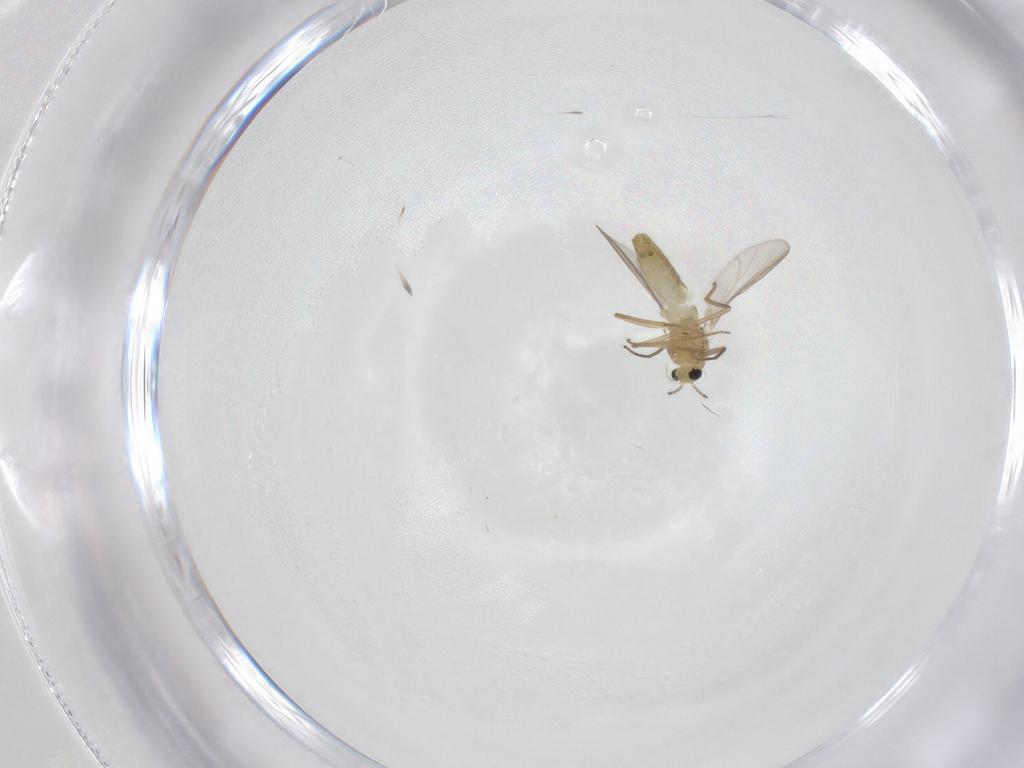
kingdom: Animalia
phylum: Arthropoda
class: Insecta
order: Diptera
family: Chironomidae
